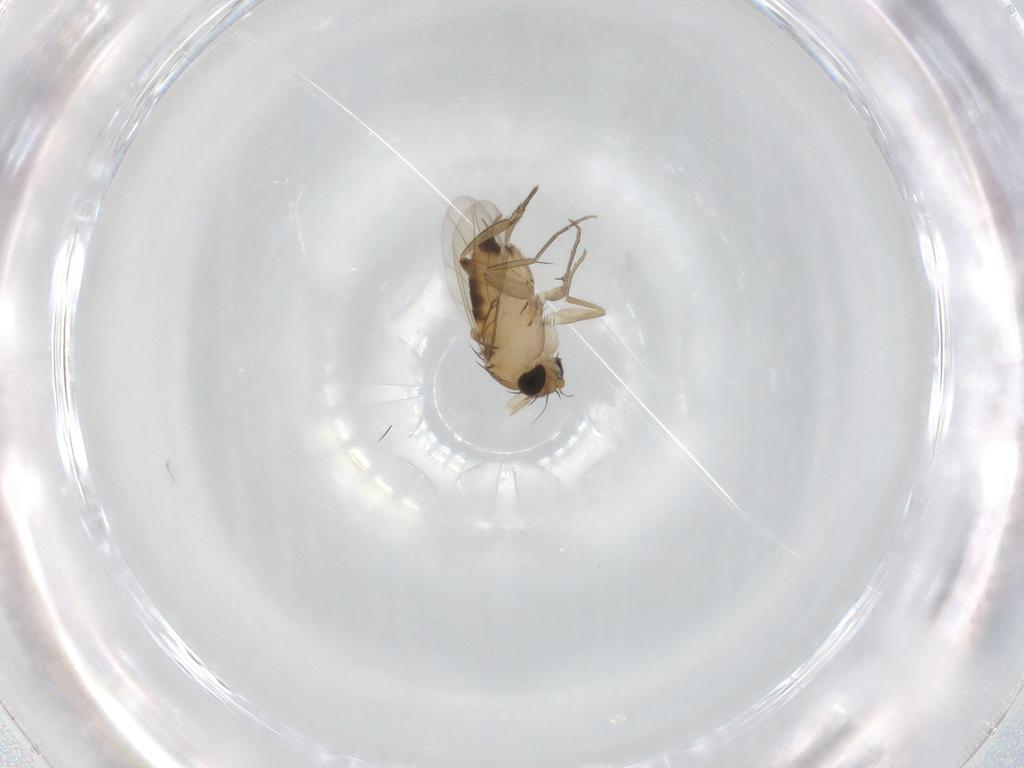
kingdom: Animalia
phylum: Arthropoda
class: Insecta
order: Diptera
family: Phoridae
